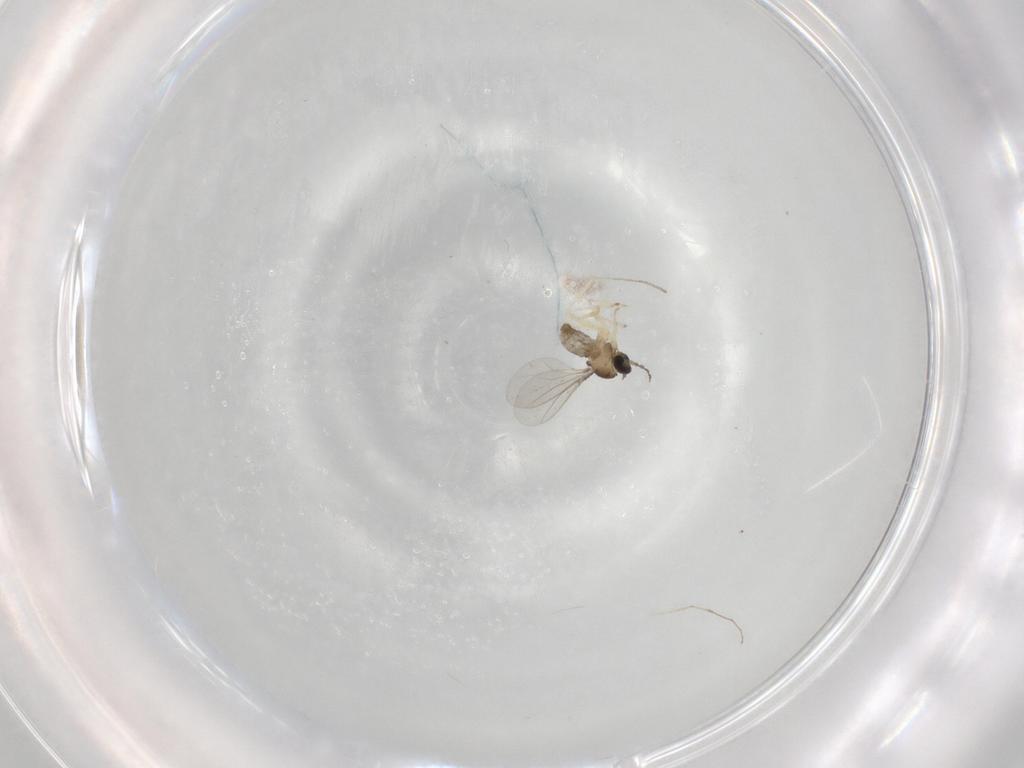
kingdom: Animalia
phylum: Arthropoda
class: Insecta
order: Diptera
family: Cecidomyiidae
